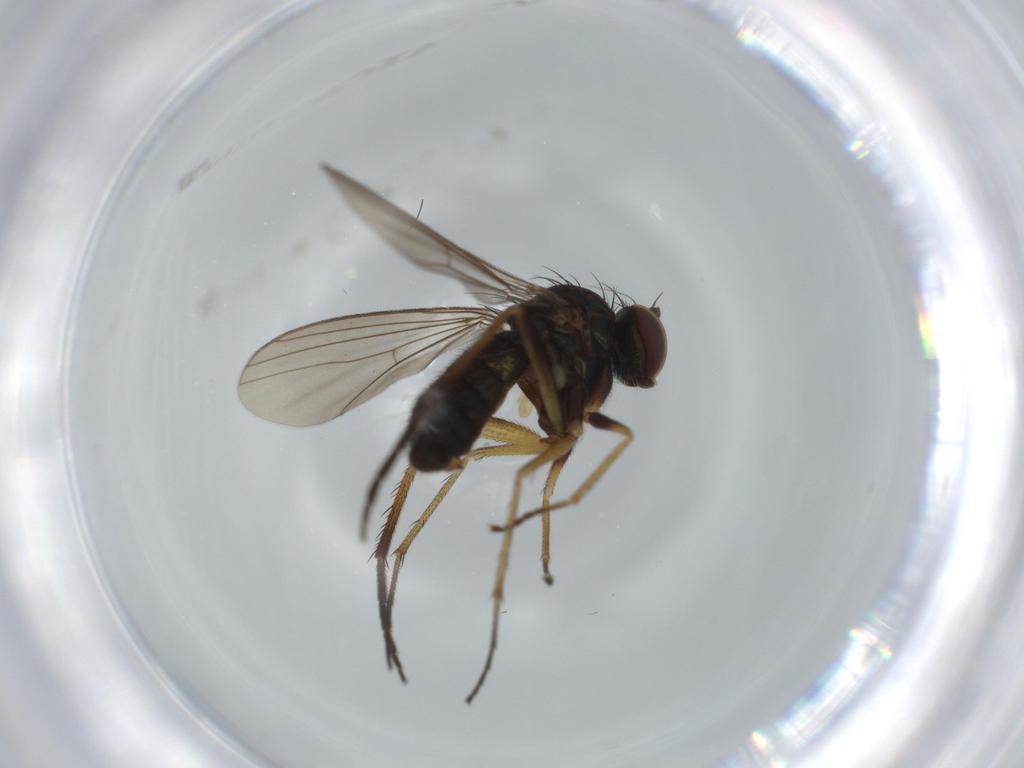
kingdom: Animalia
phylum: Arthropoda
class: Insecta
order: Diptera
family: Dolichopodidae
